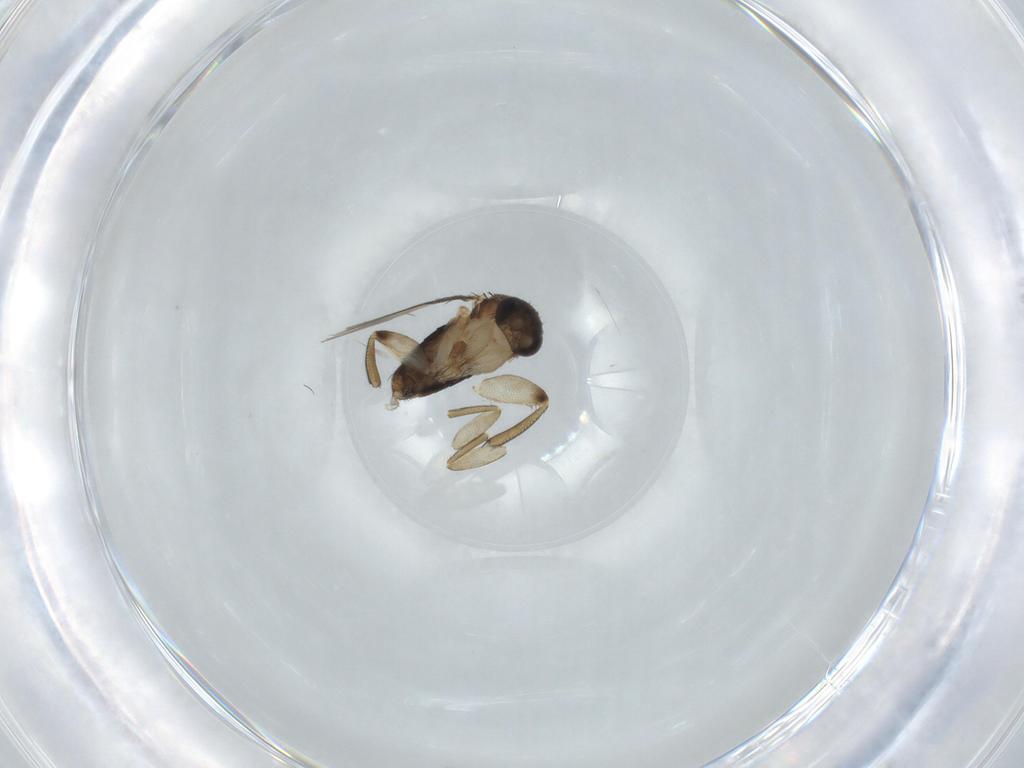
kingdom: Animalia
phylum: Arthropoda
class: Insecta
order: Diptera
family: Phoridae
